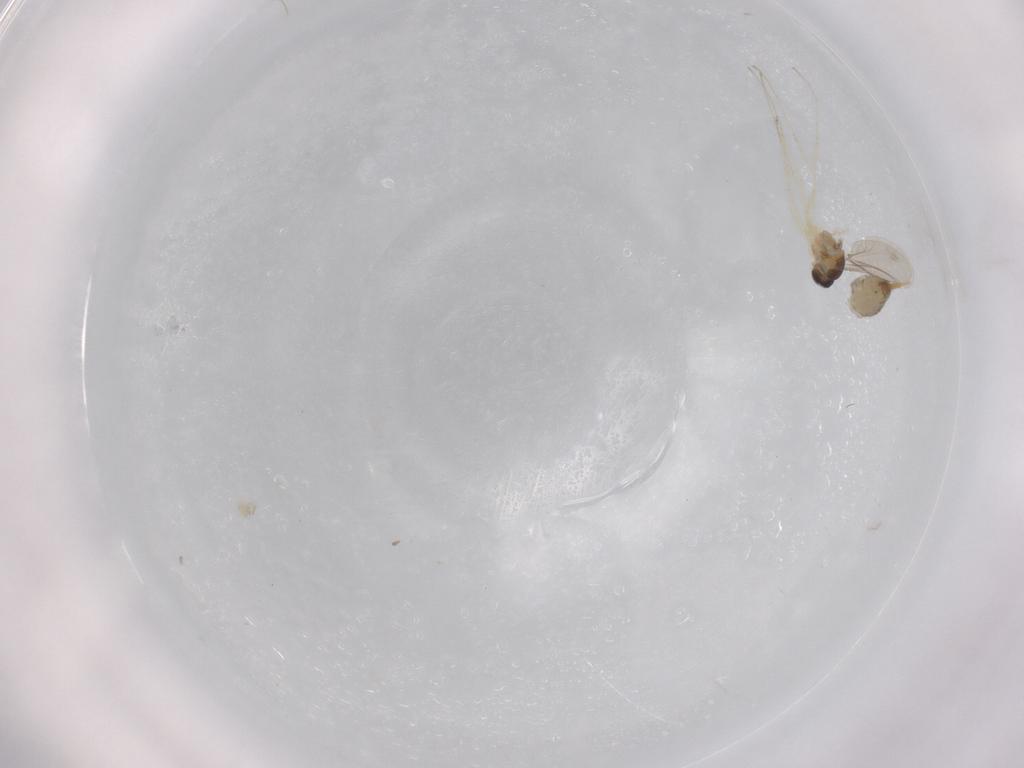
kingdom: Animalia
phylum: Arthropoda
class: Insecta
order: Diptera
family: Cecidomyiidae
